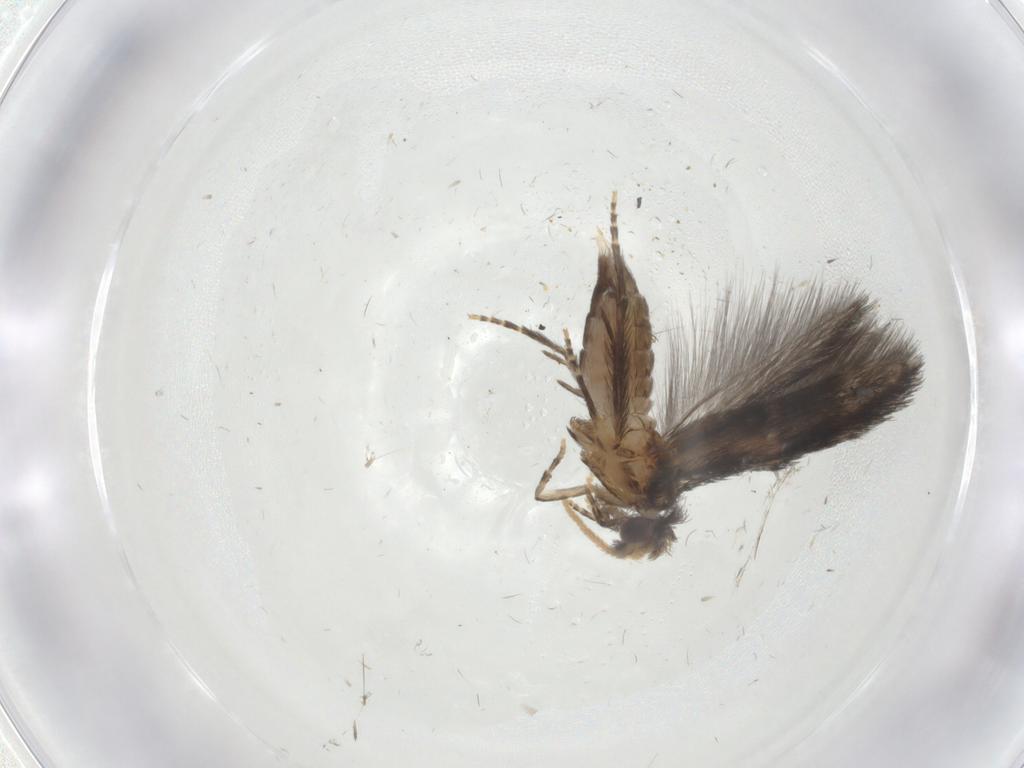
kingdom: Animalia
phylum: Arthropoda
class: Insecta
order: Trichoptera
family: Hydroptilidae
